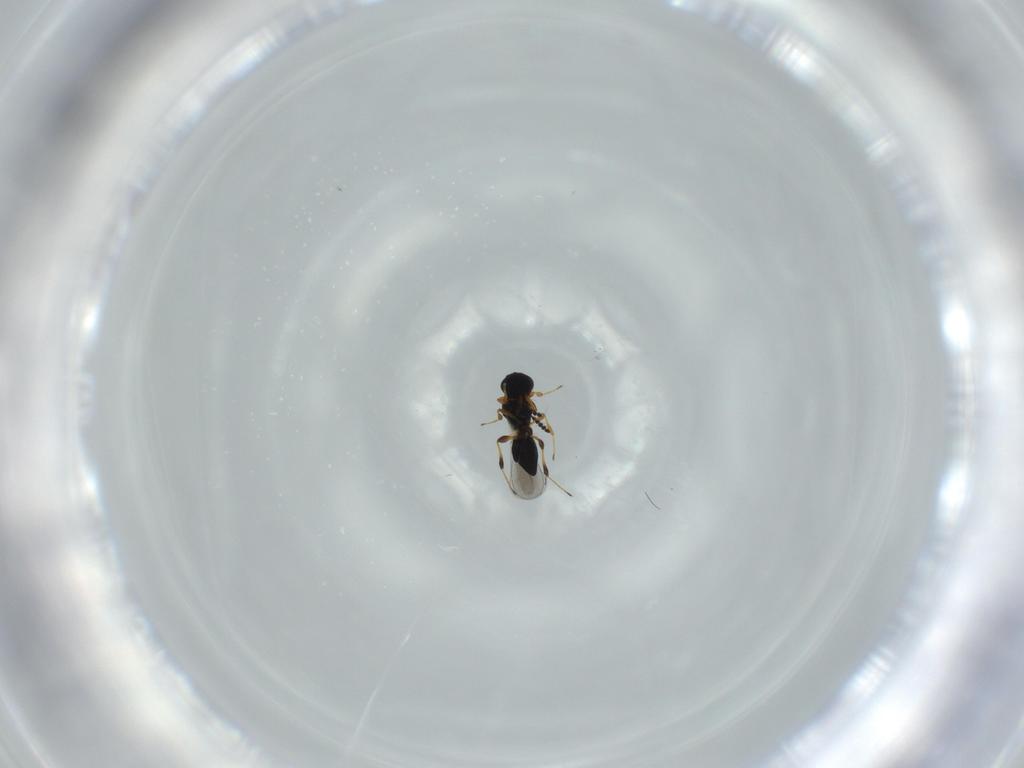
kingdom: Animalia
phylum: Arthropoda
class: Insecta
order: Hymenoptera
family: Platygastridae
